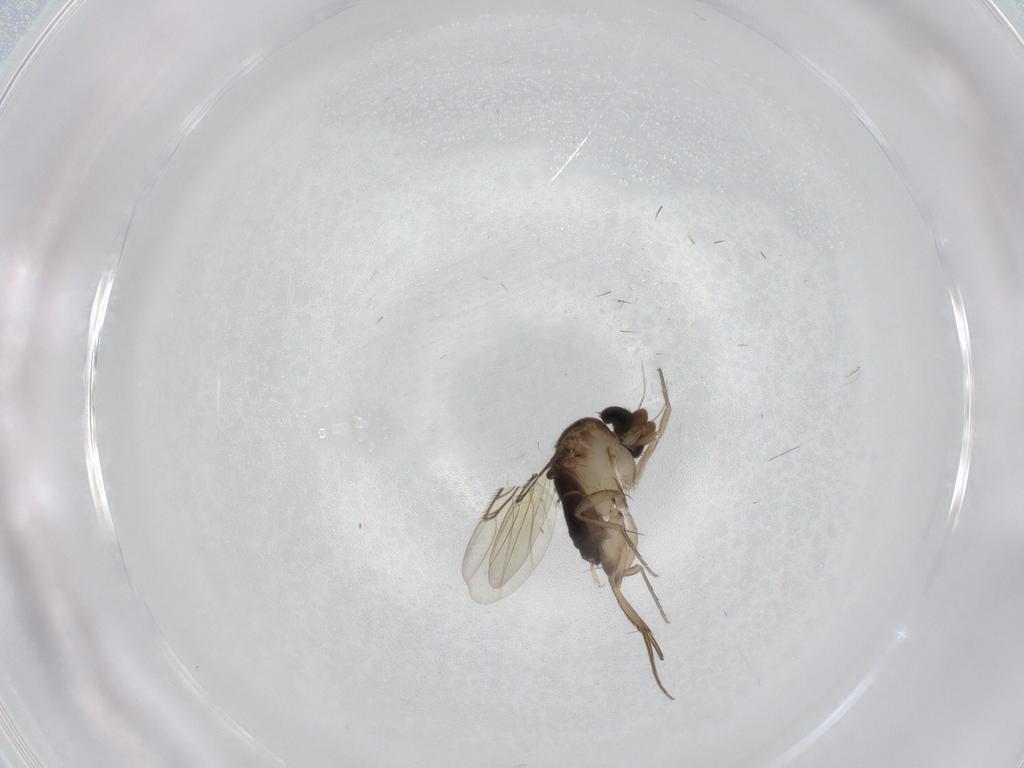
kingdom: Animalia
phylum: Arthropoda
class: Insecta
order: Diptera
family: Phoridae
